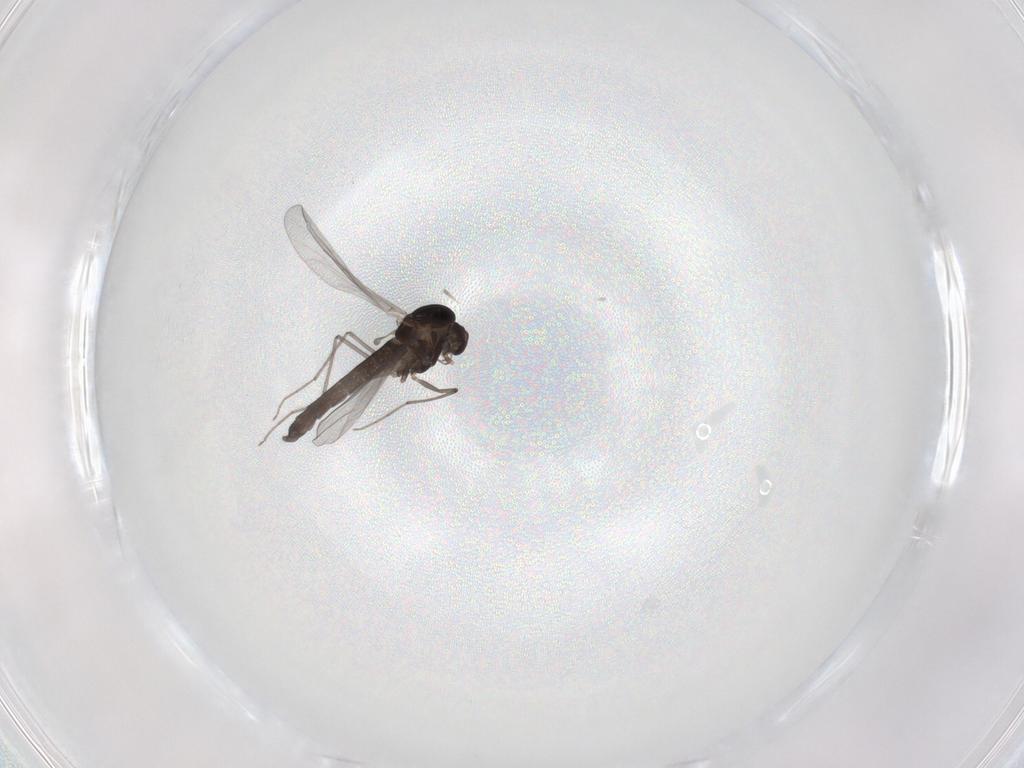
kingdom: Animalia
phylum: Arthropoda
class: Insecta
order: Diptera
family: Chironomidae
